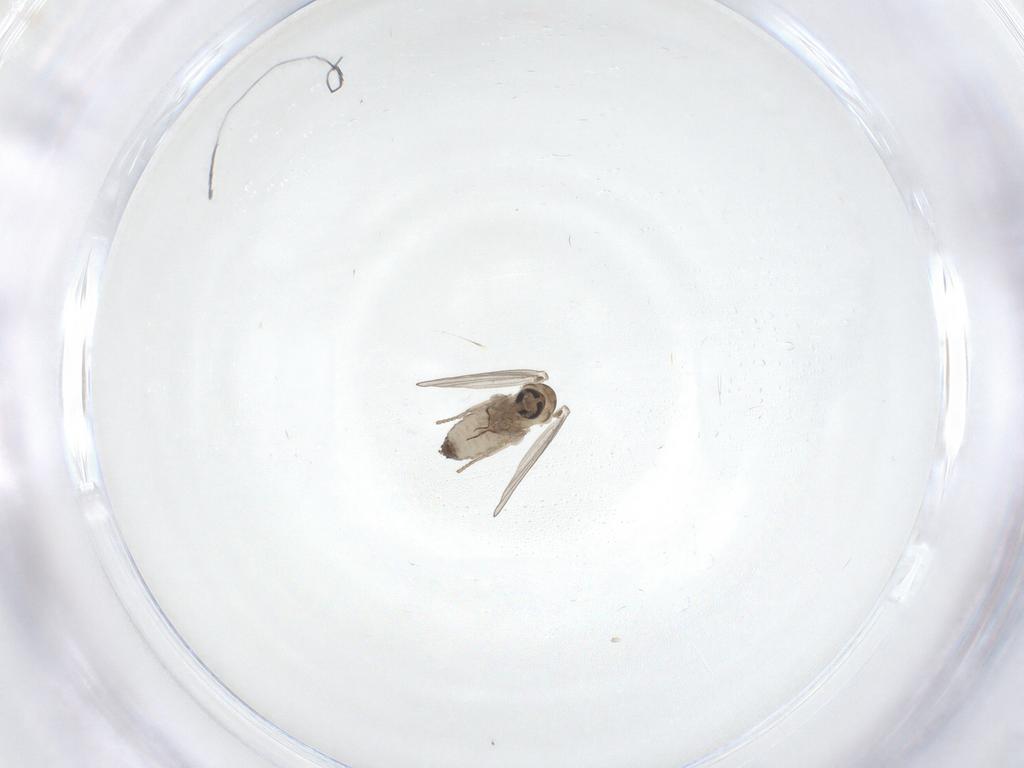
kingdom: Animalia
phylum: Arthropoda
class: Insecta
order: Diptera
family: Psychodidae
